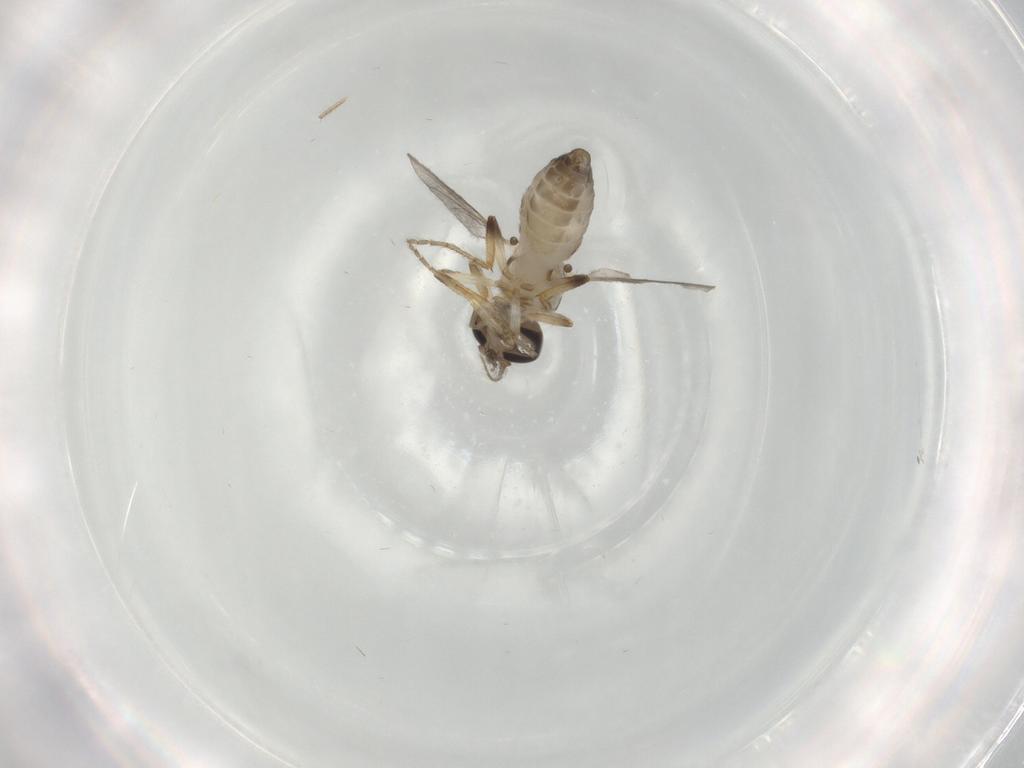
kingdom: Animalia
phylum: Arthropoda
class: Insecta
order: Diptera
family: Ceratopogonidae
